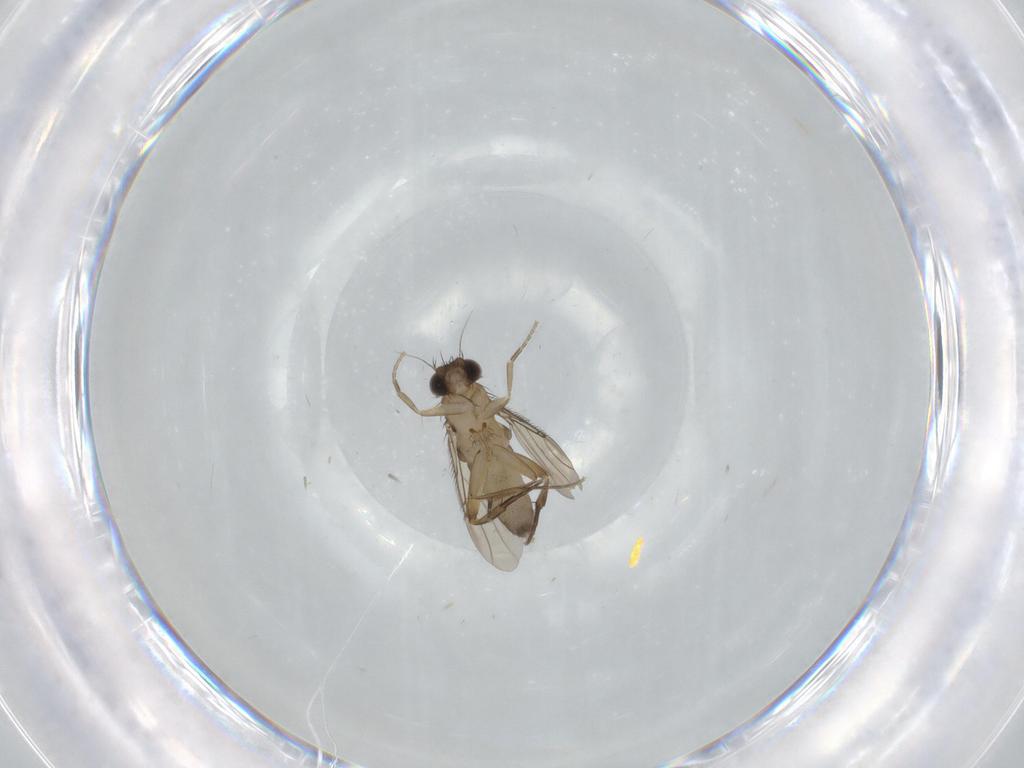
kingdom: Animalia
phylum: Arthropoda
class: Insecta
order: Diptera
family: Phoridae
